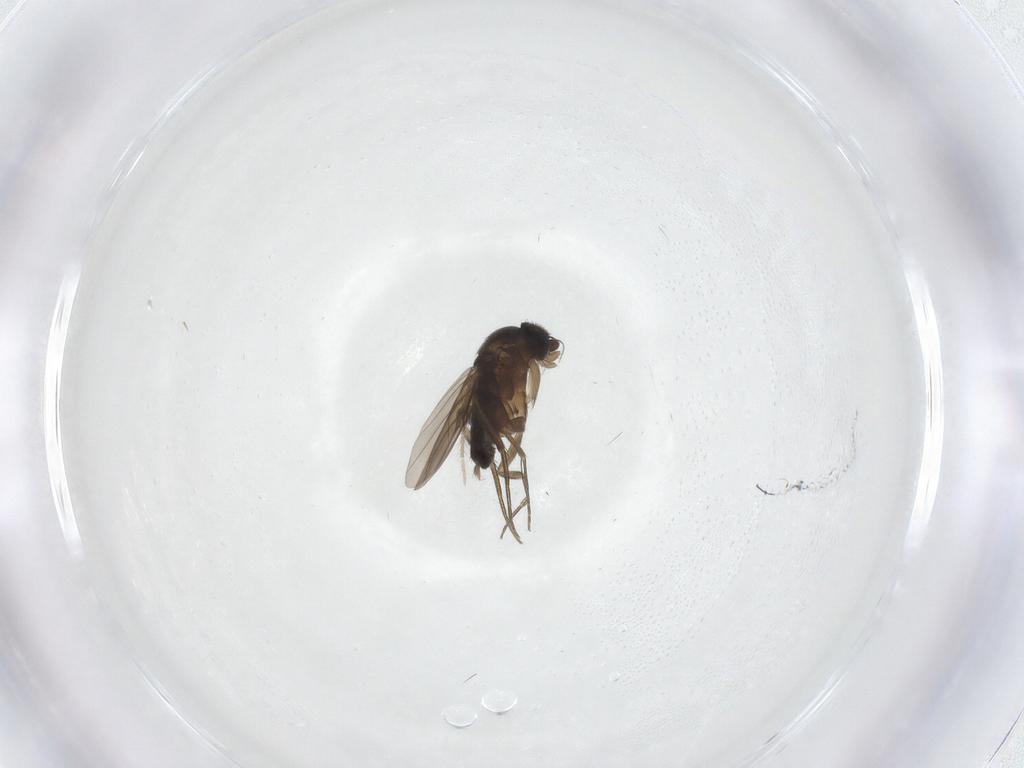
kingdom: Animalia
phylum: Arthropoda
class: Insecta
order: Diptera
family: Phoridae
